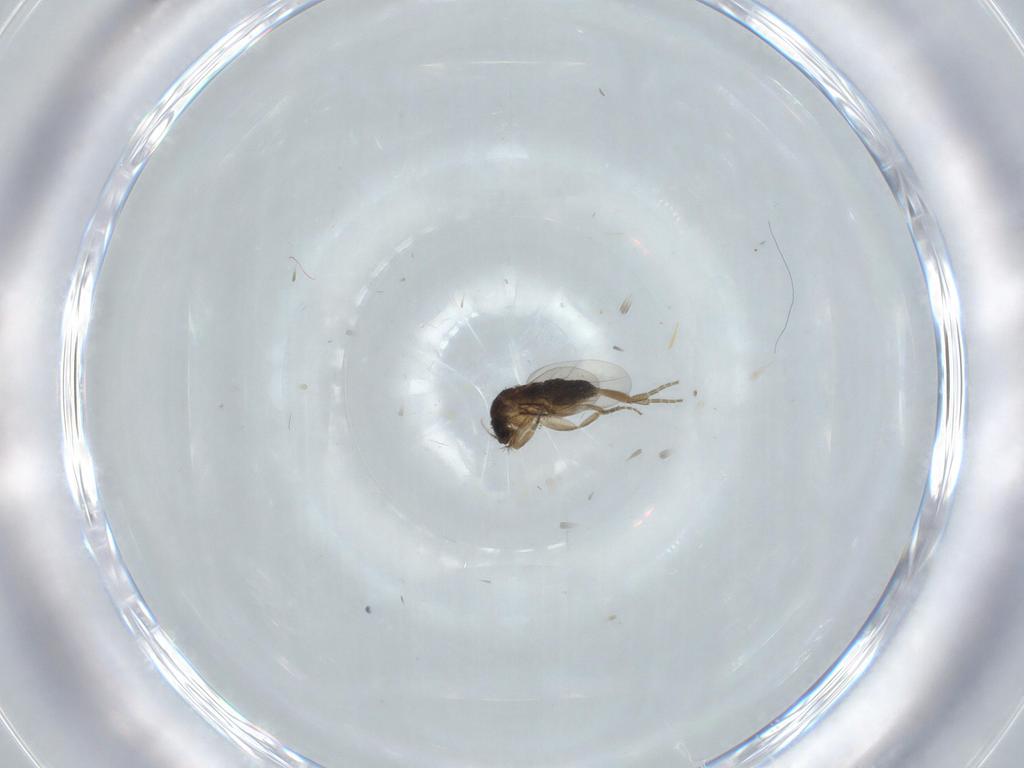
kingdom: Animalia
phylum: Arthropoda
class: Insecta
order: Diptera
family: Phoridae
